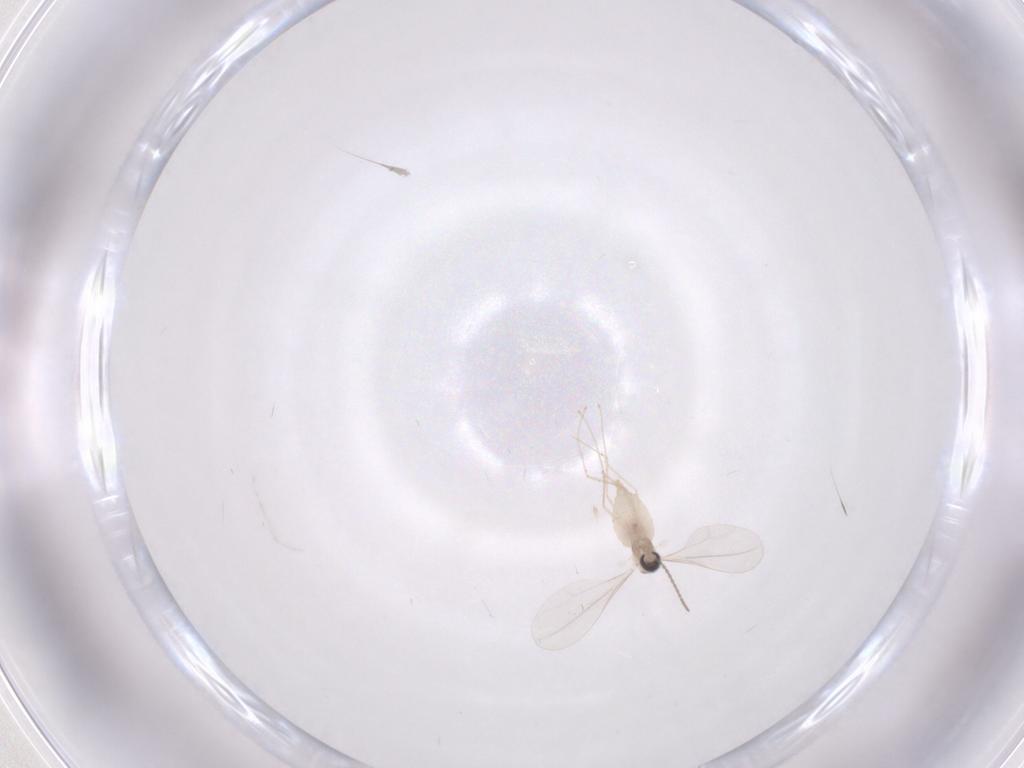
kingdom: Animalia
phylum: Arthropoda
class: Insecta
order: Diptera
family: Cecidomyiidae
